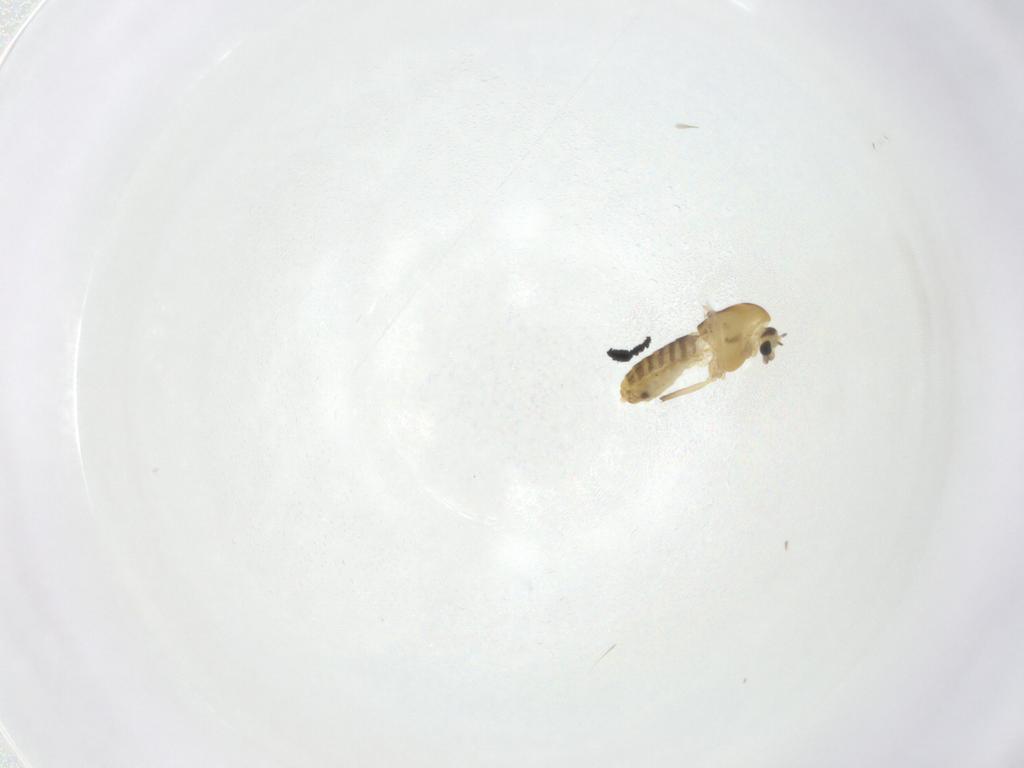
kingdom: Animalia
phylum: Arthropoda
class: Insecta
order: Diptera
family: Chironomidae
